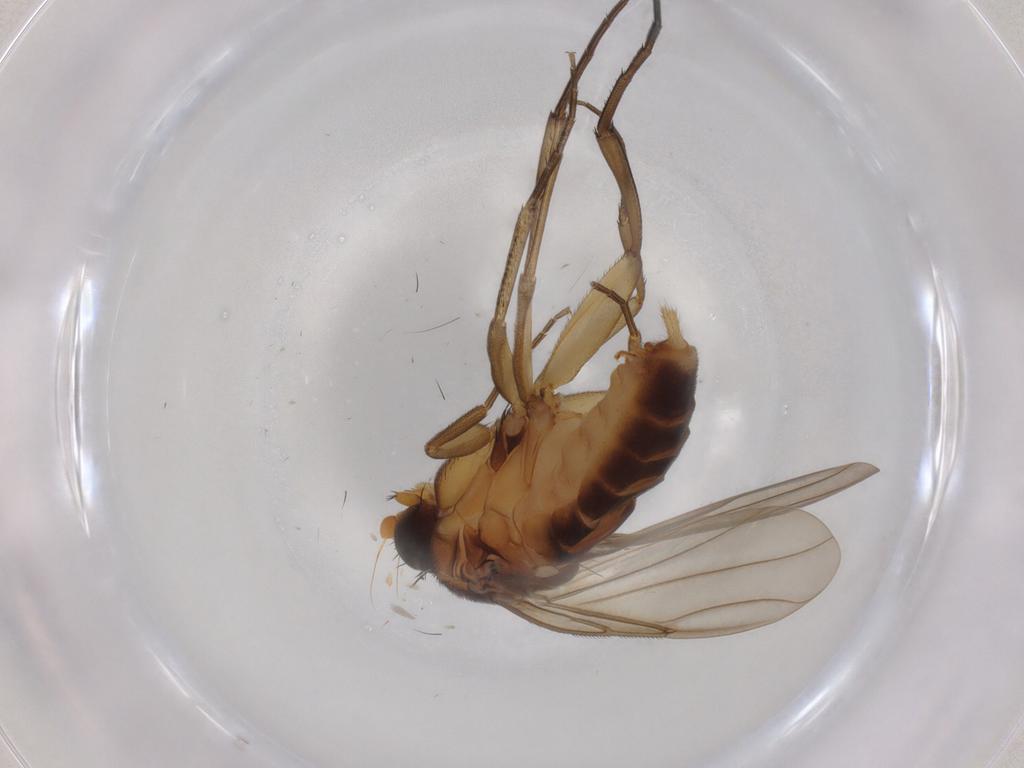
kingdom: Animalia
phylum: Arthropoda
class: Insecta
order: Diptera
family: Phoridae
